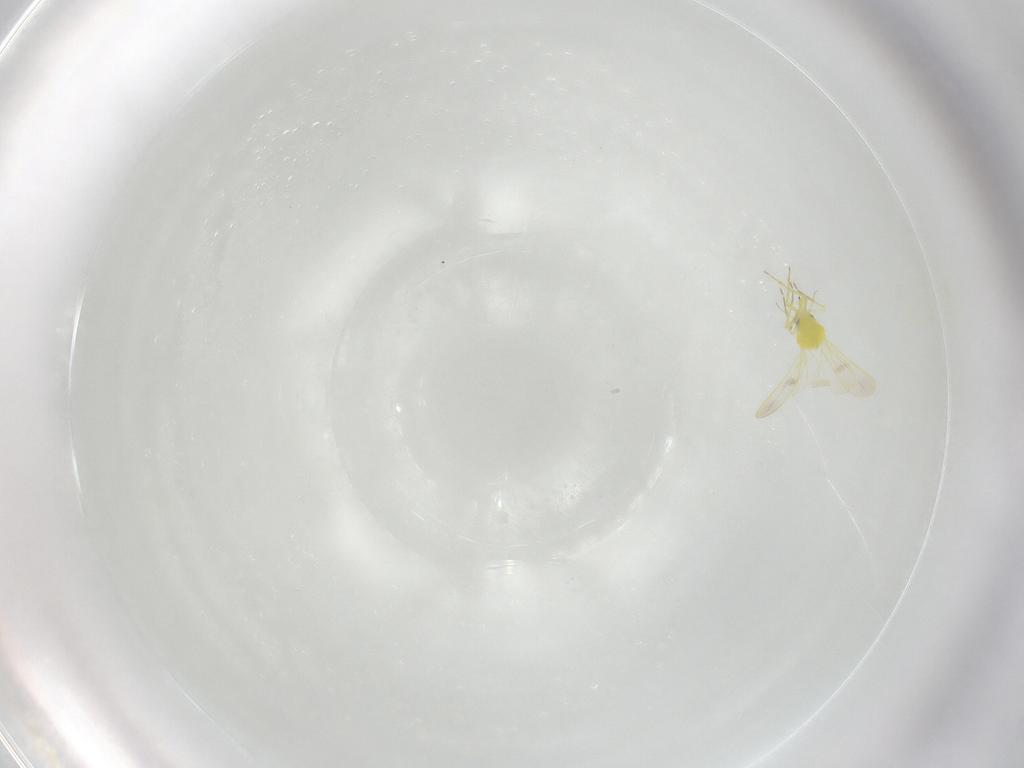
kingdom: Animalia
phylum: Arthropoda
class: Insecta
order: Hemiptera
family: Aleyrodidae
